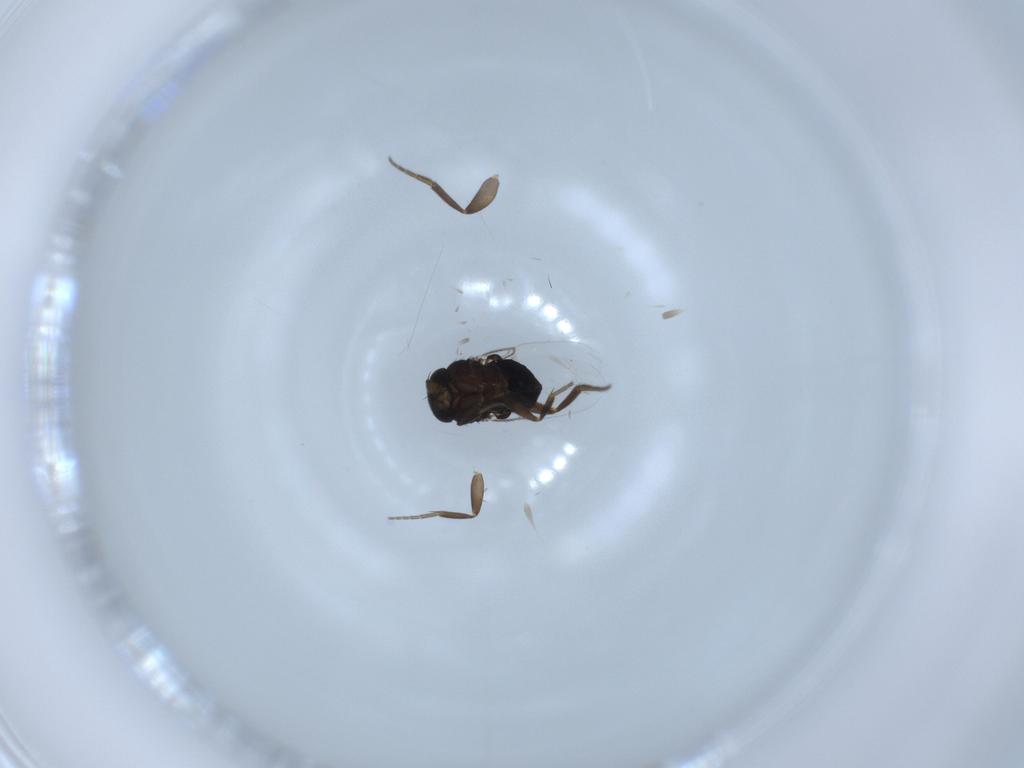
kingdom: Animalia
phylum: Arthropoda
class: Insecta
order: Diptera
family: Phoridae
